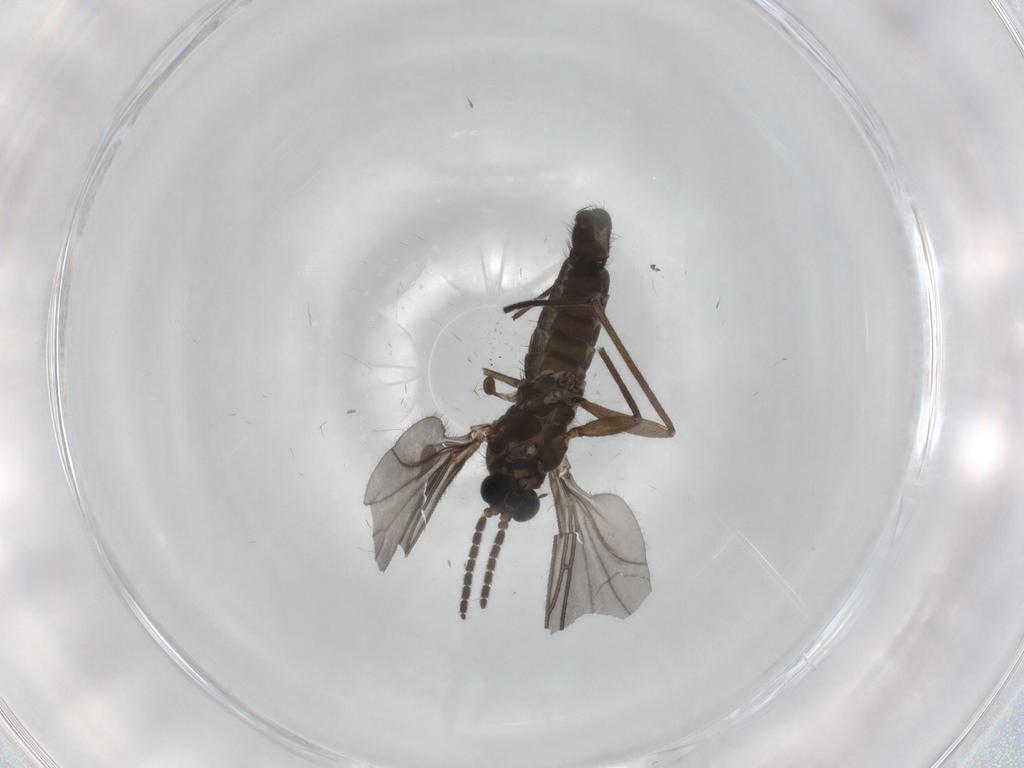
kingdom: Animalia
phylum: Arthropoda
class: Insecta
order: Diptera
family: Sciaridae
